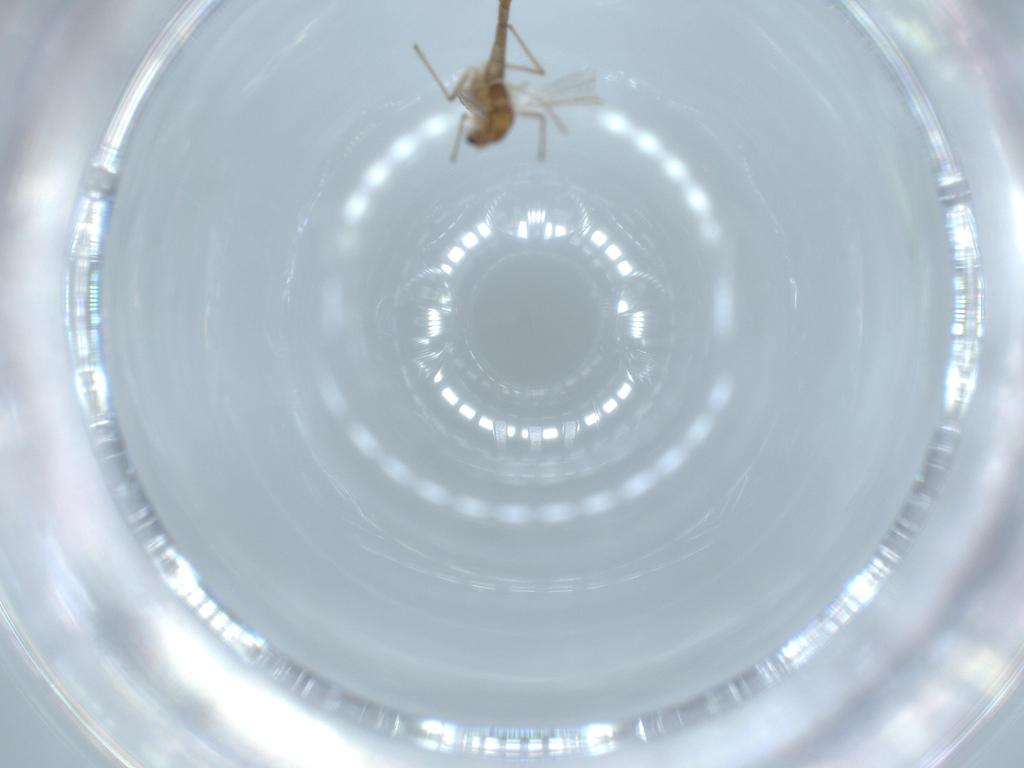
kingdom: Animalia
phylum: Arthropoda
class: Insecta
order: Diptera
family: Chironomidae
